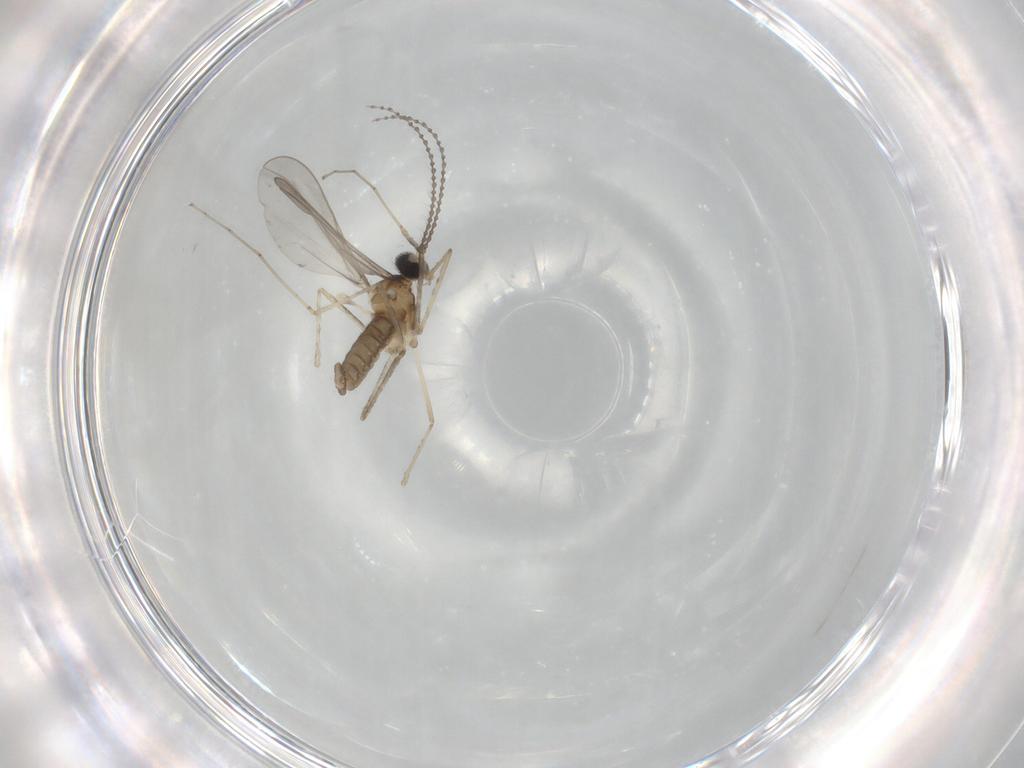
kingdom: Animalia
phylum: Arthropoda
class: Insecta
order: Diptera
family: Cecidomyiidae
